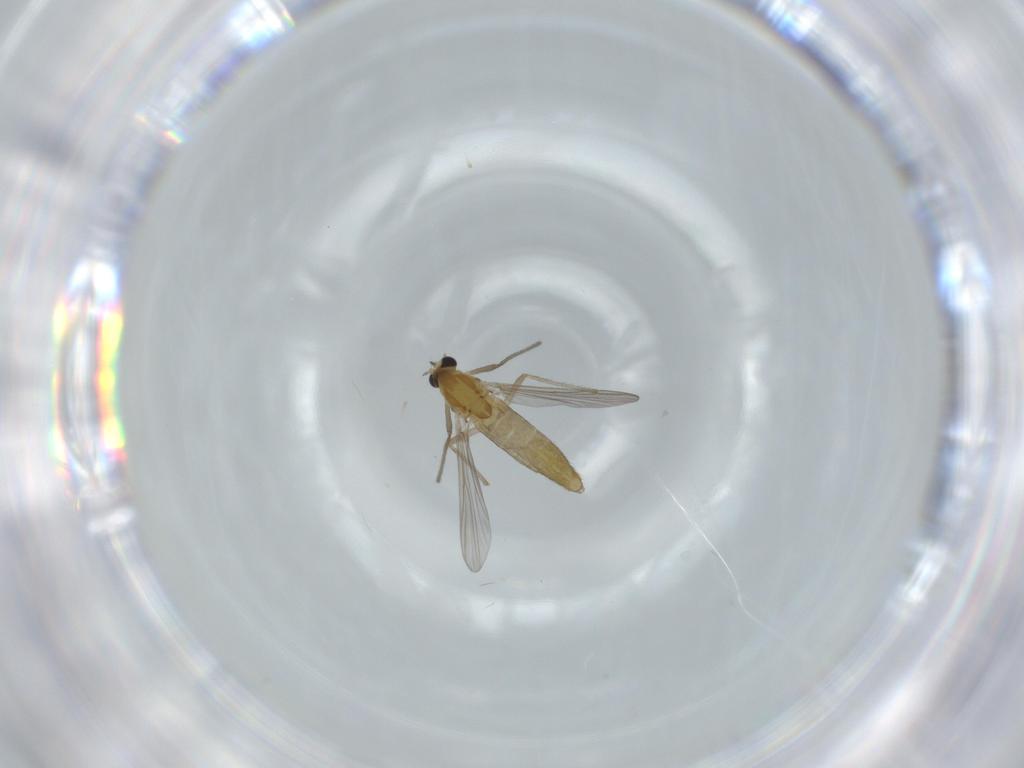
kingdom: Animalia
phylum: Arthropoda
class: Insecta
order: Diptera
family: Chironomidae
